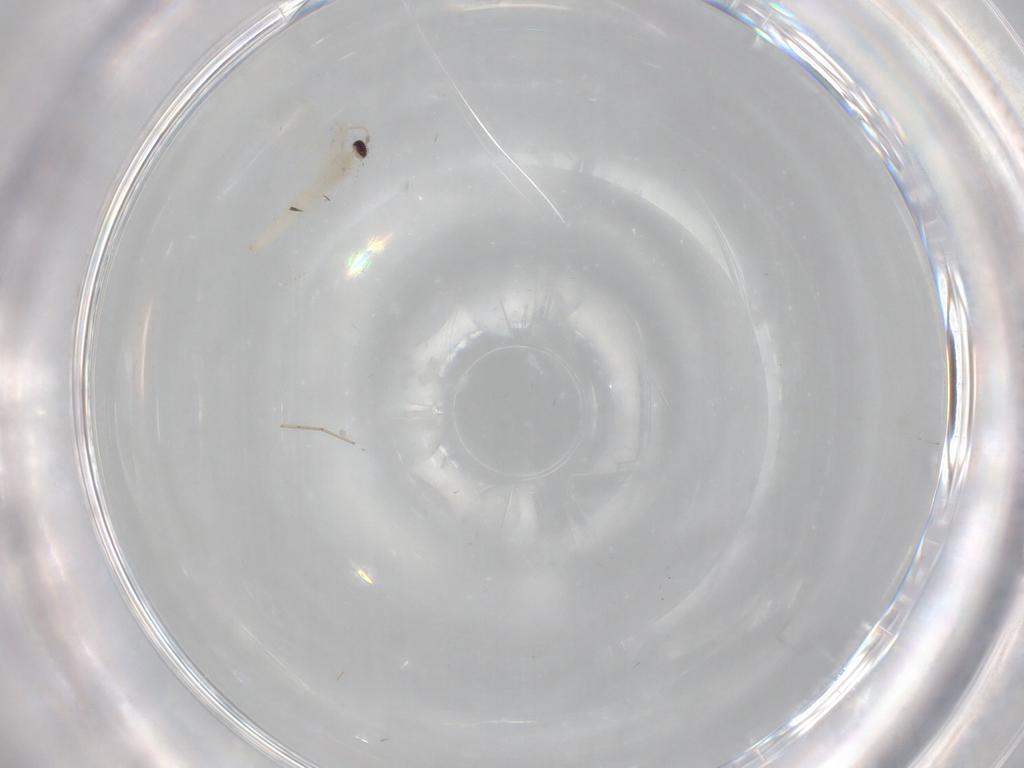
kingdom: Animalia
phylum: Arthropoda
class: Insecta
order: Diptera
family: Cecidomyiidae
